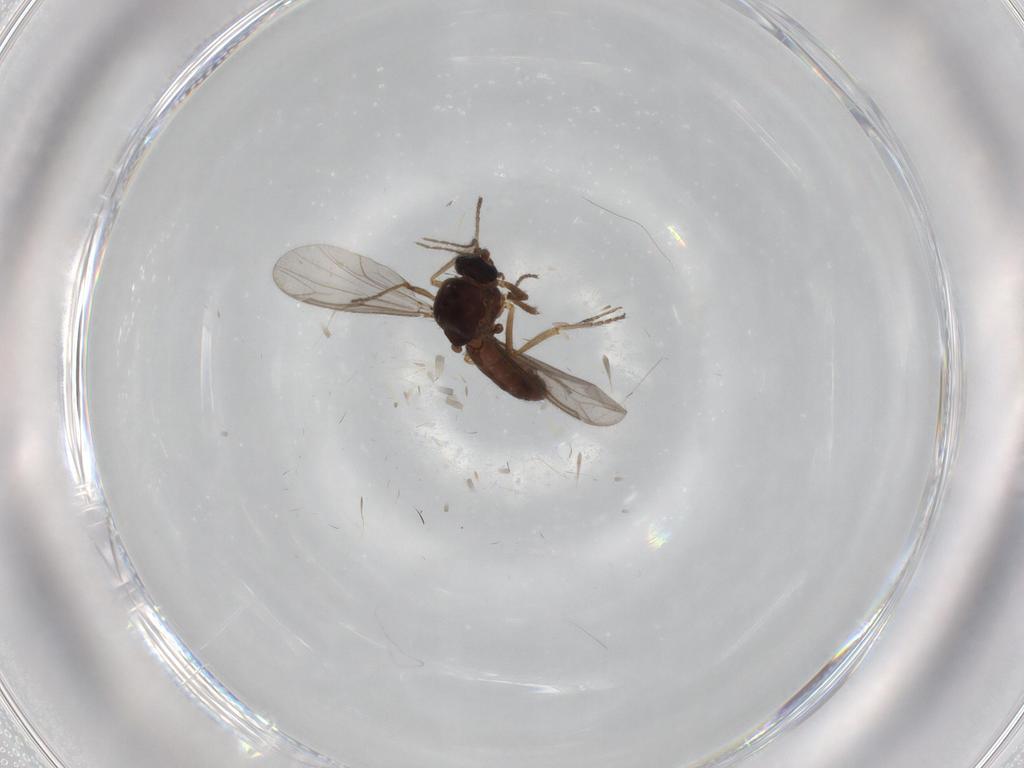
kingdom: Animalia
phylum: Arthropoda
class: Insecta
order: Diptera
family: Ceratopogonidae
